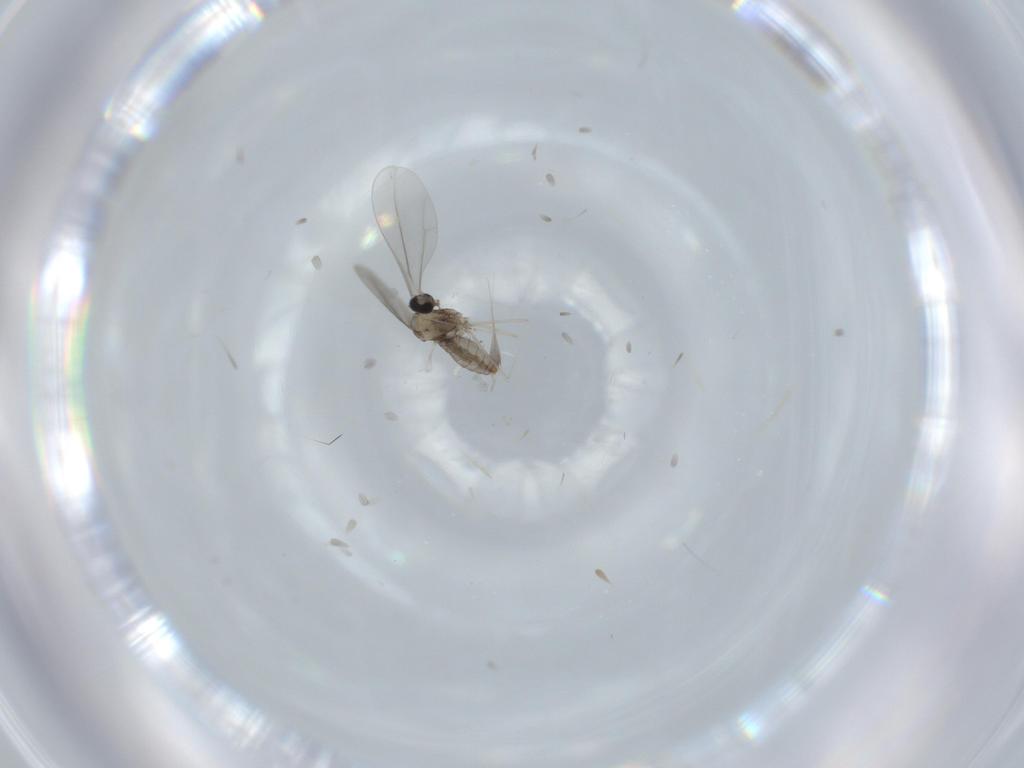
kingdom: Animalia
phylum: Arthropoda
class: Insecta
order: Diptera
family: Cecidomyiidae
